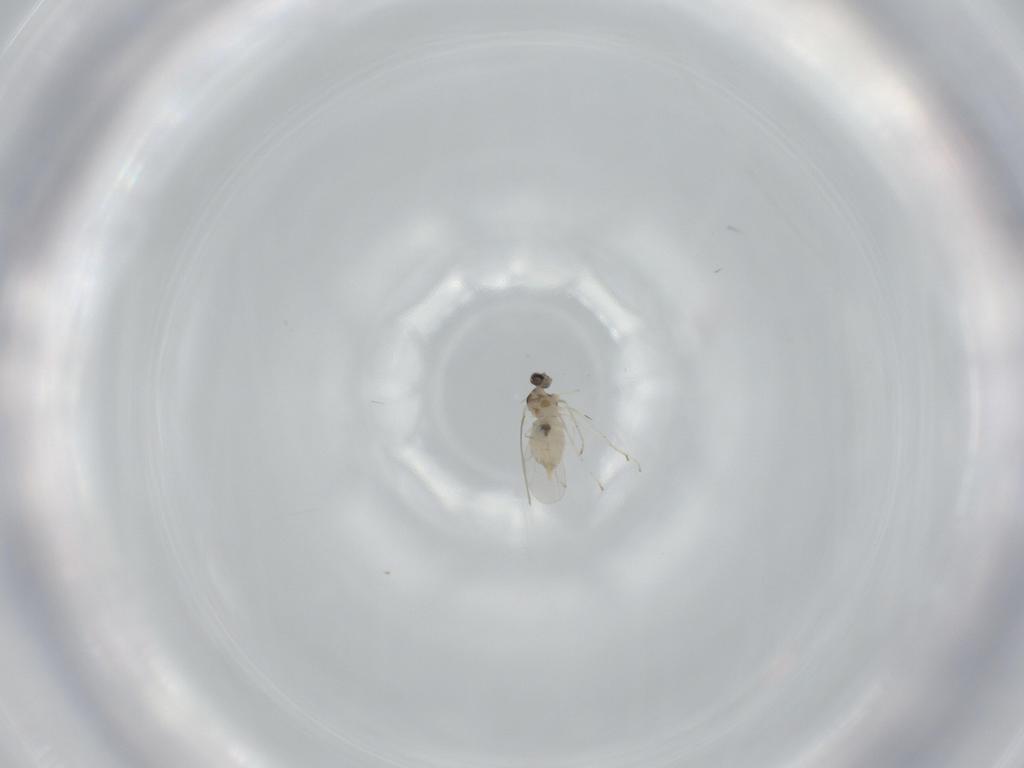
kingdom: Animalia
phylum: Arthropoda
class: Insecta
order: Diptera
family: Cecidomyiidae
